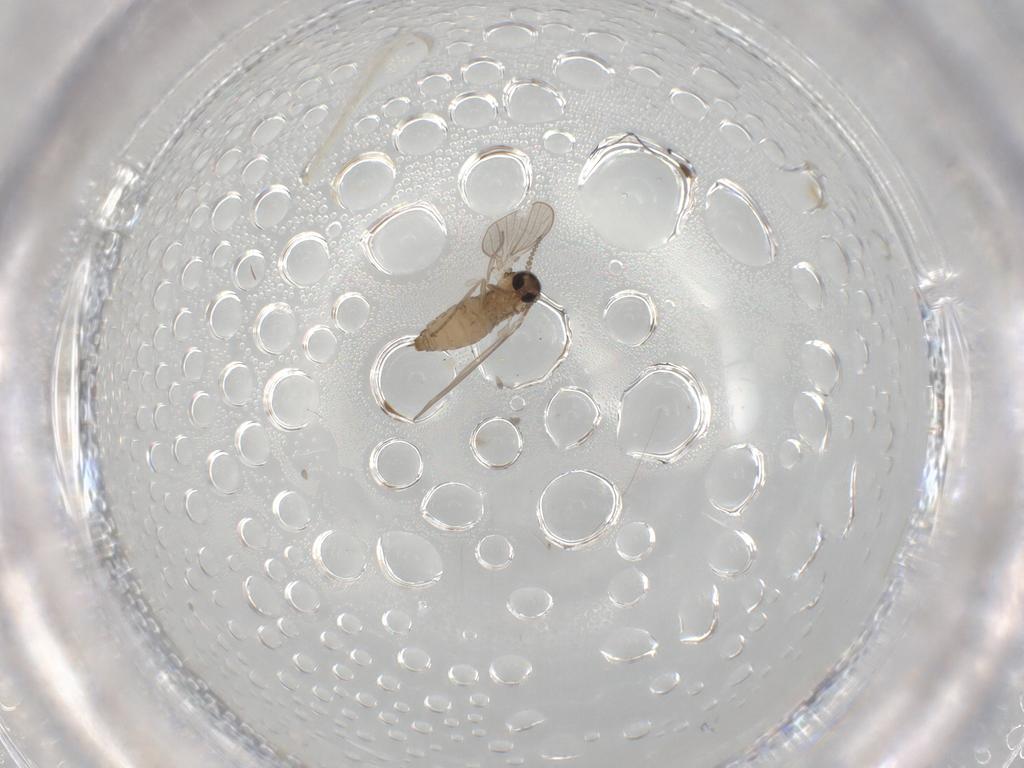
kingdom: Animalia
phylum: Arthropoda
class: Insecta
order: Diptera
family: Psychodidae
